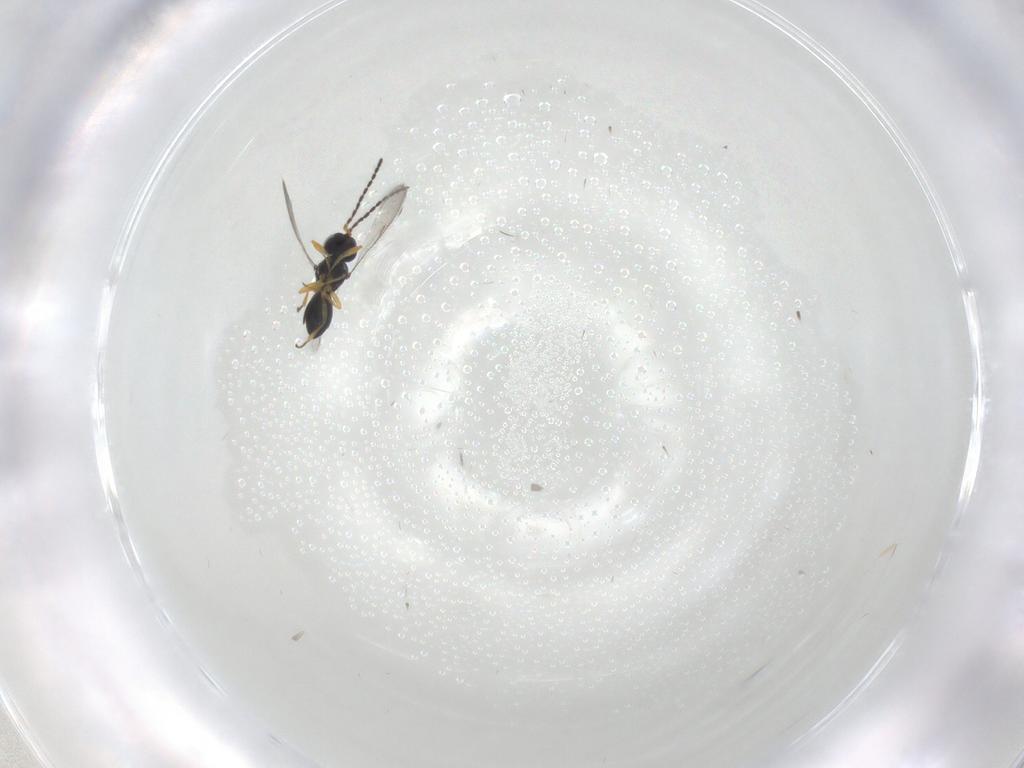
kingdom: Animalia
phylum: Arthropoda
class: Insecta
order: Hymenoptera
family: Scelionidae
